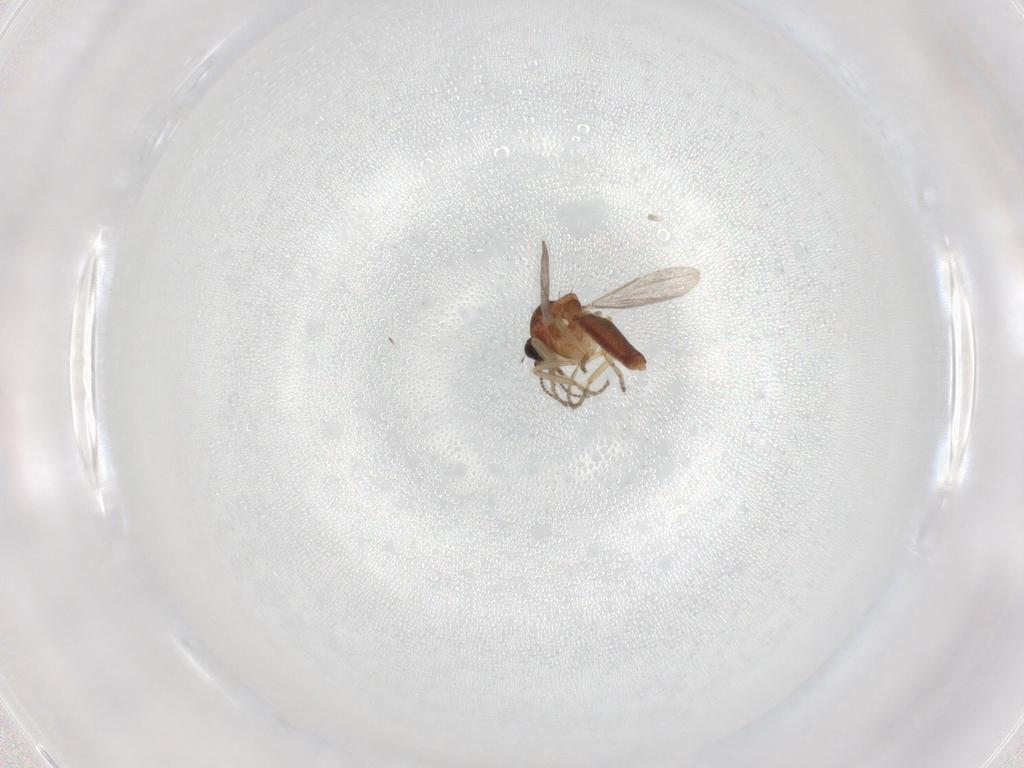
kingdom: Animalia
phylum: Arthropoda
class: Insecta
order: Diptera
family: Ceratopogonidae
